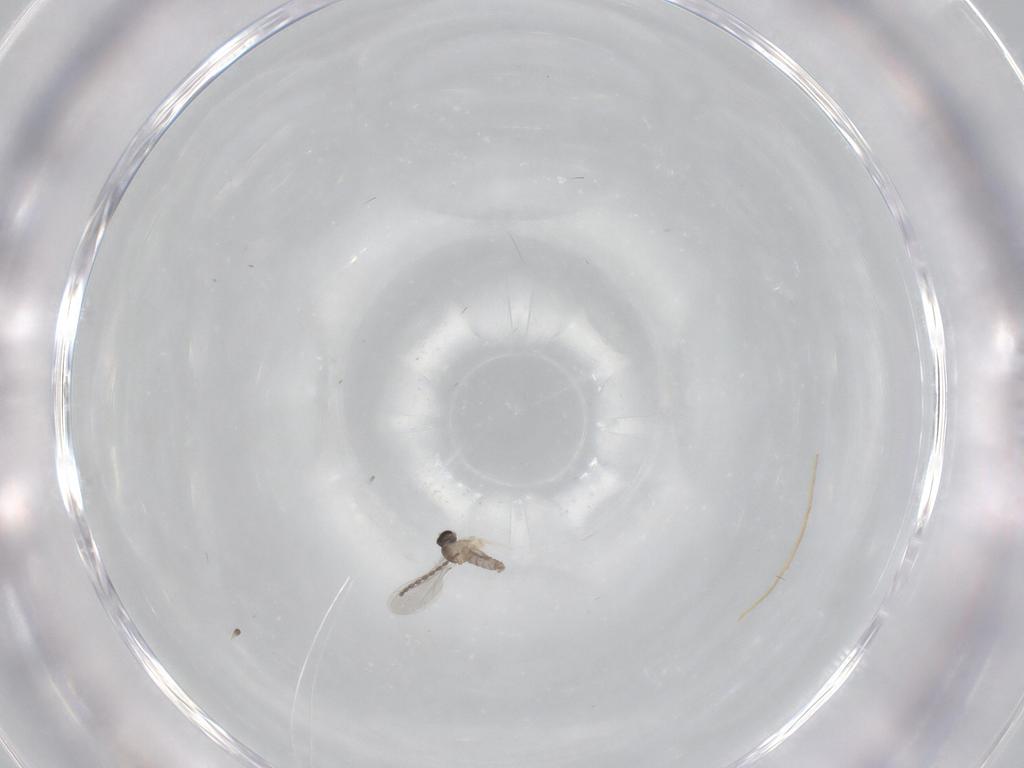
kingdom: Animalia
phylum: Arthropoda
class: Insecta
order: Diptera
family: Cecidomyiidae
